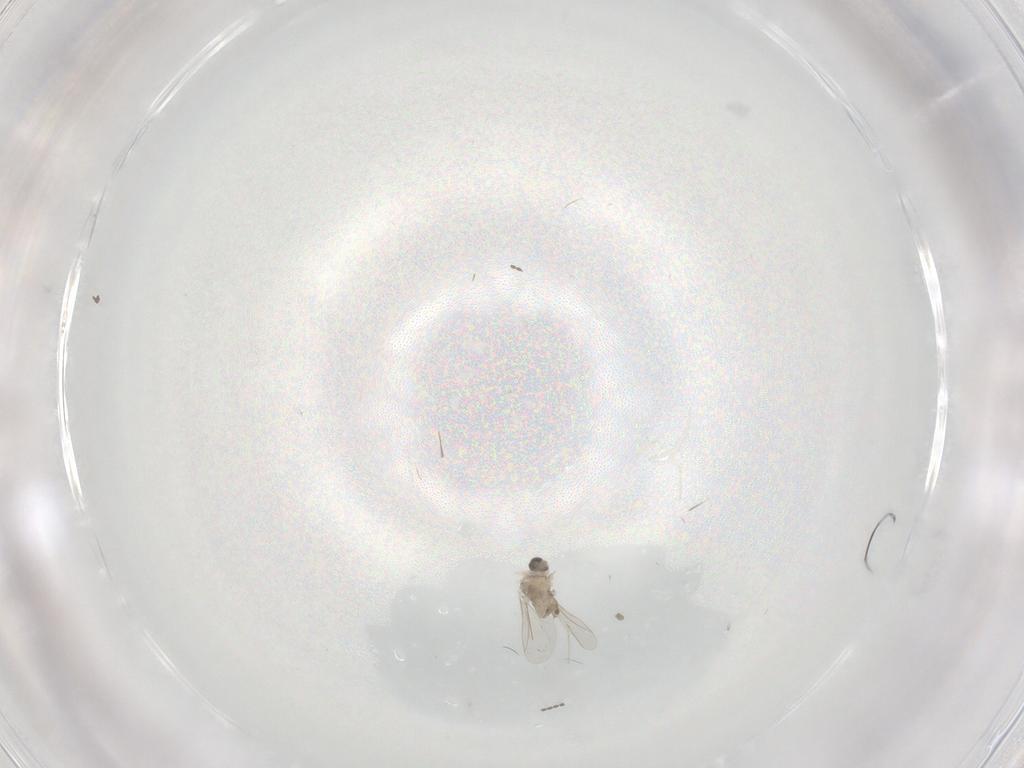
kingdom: Animalia
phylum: Arthropoda
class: Insecta
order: Diptera
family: Cecidomyiidae
